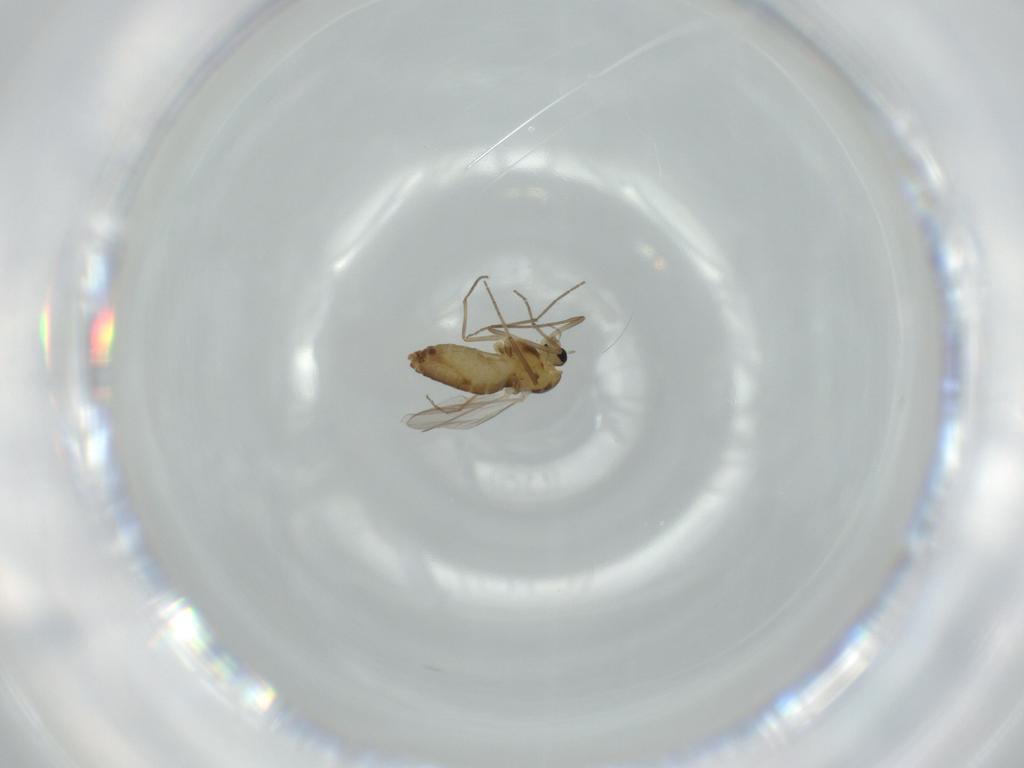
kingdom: Animalia
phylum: Arthropoda
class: Insecta
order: Diptera
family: Chironomidae
